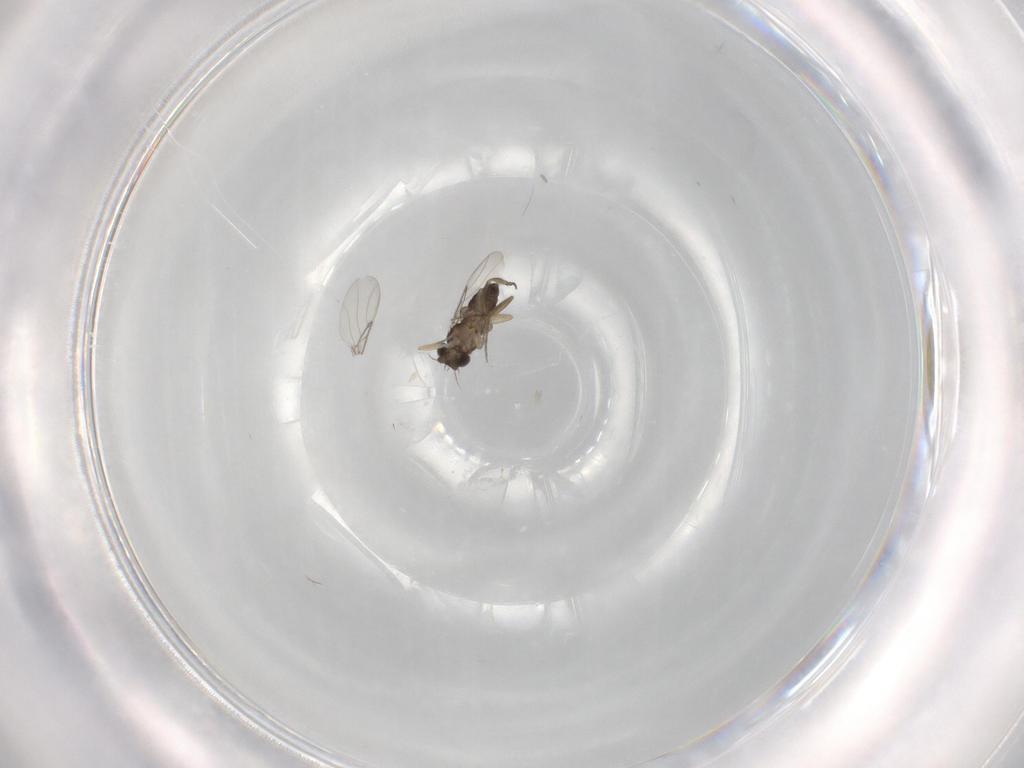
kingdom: Animalia
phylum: Arthropoda
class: Insecta
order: Diptera
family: Cecidomyiidae
